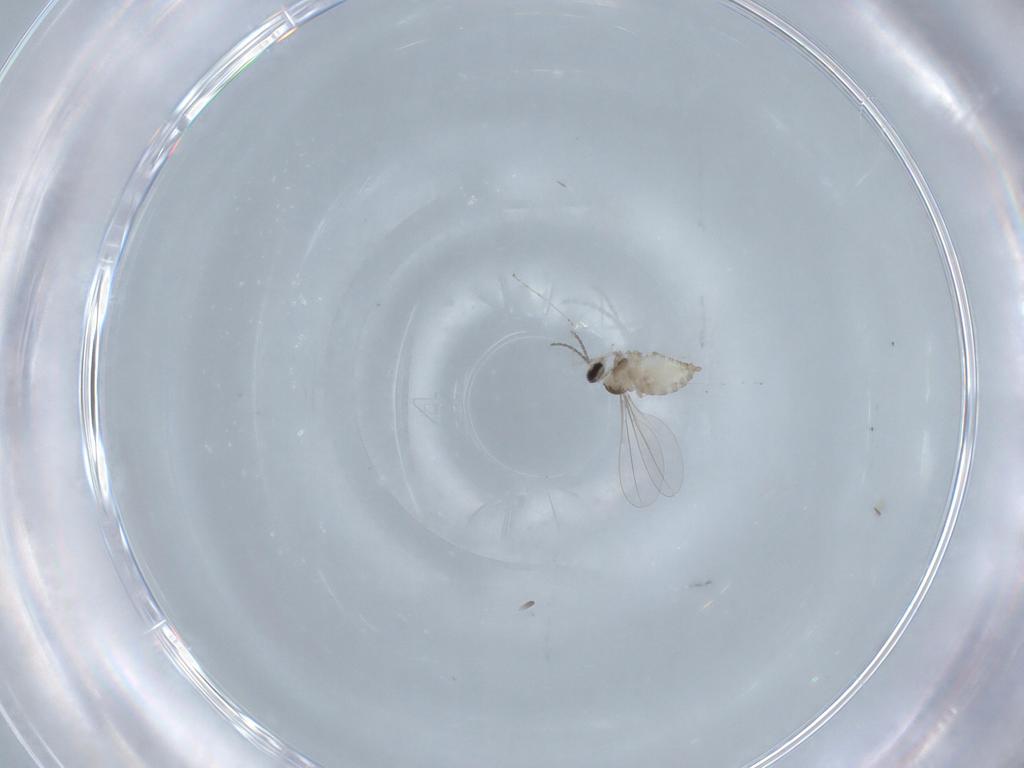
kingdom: Animalia
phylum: Arthropoda
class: Insecta
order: Diptera
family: Cecidomyiidae
